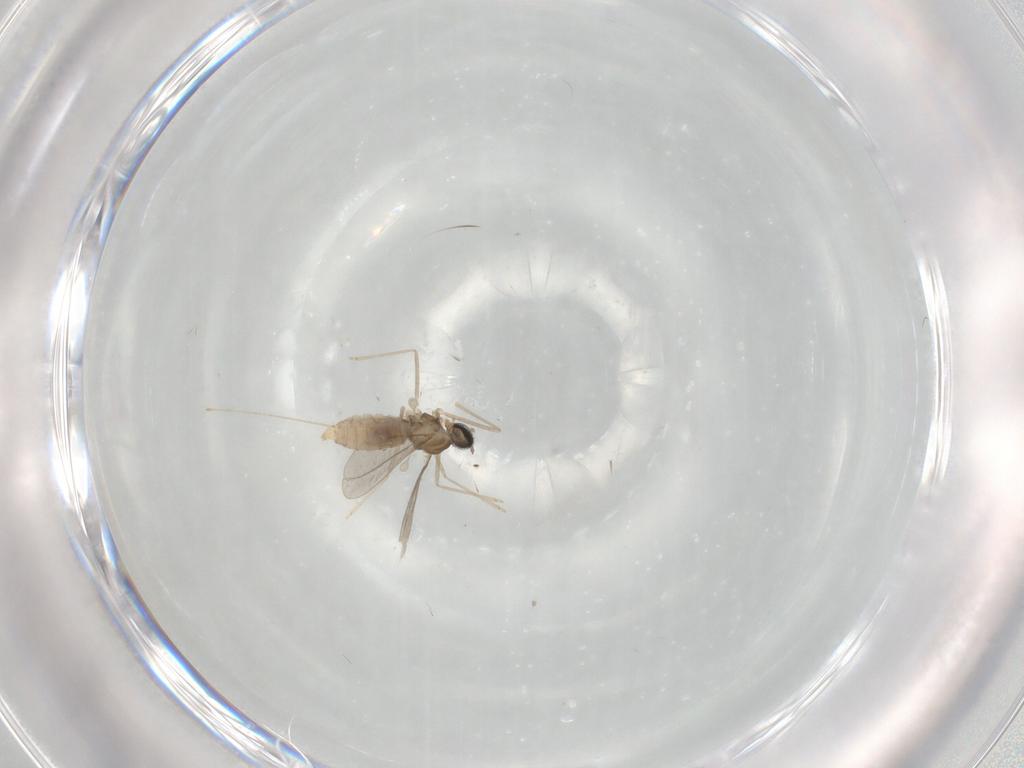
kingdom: Animalia
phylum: Arthropoda
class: Insecta
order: Diptera
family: Cecidomyiidae
